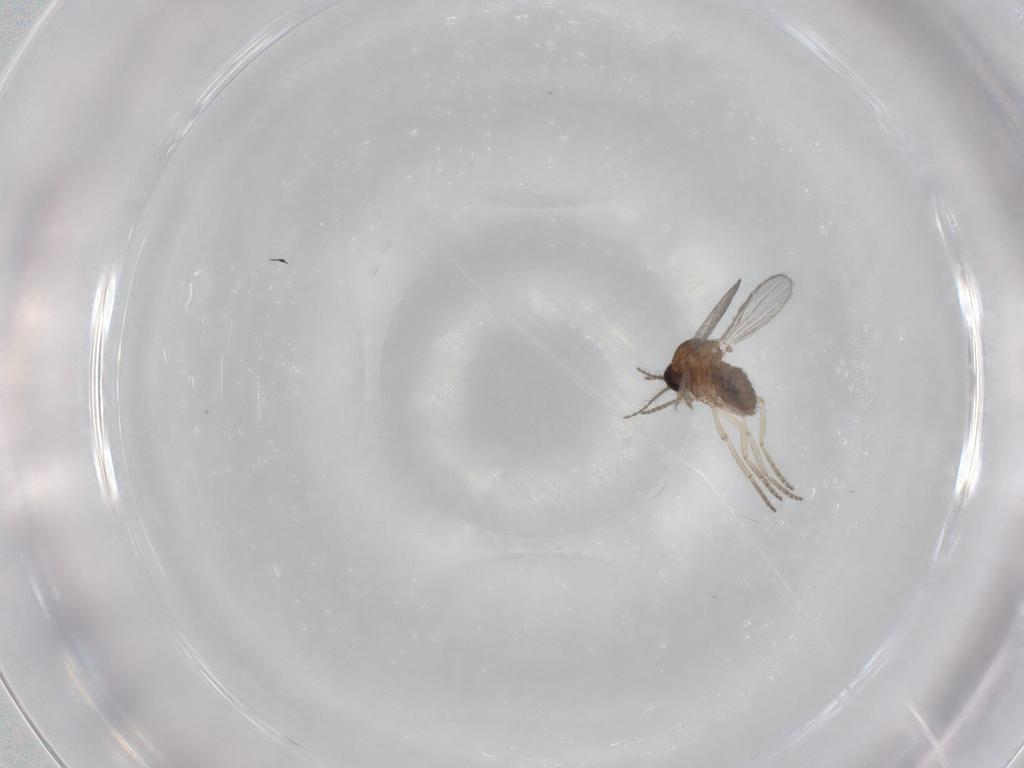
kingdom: Animalia
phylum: Arthropoda
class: Insecta
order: Diptera
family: Ceratopogonidae
